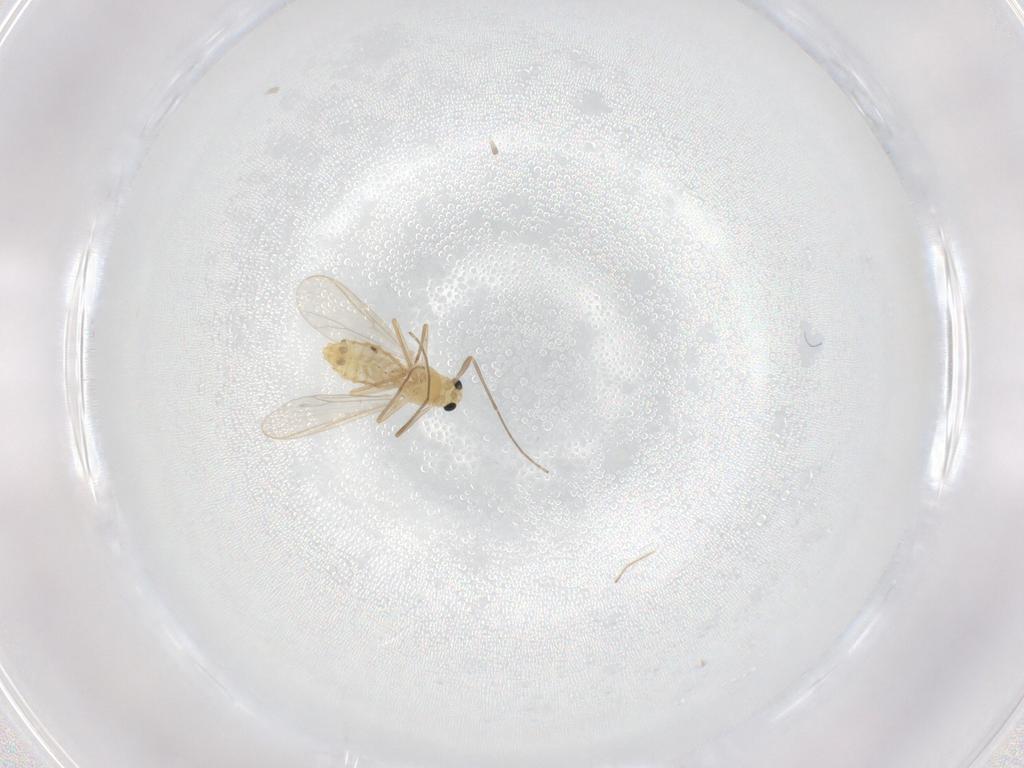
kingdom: Animalia
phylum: Arthropoda
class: Insecta
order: Diptera
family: Chironomidae
